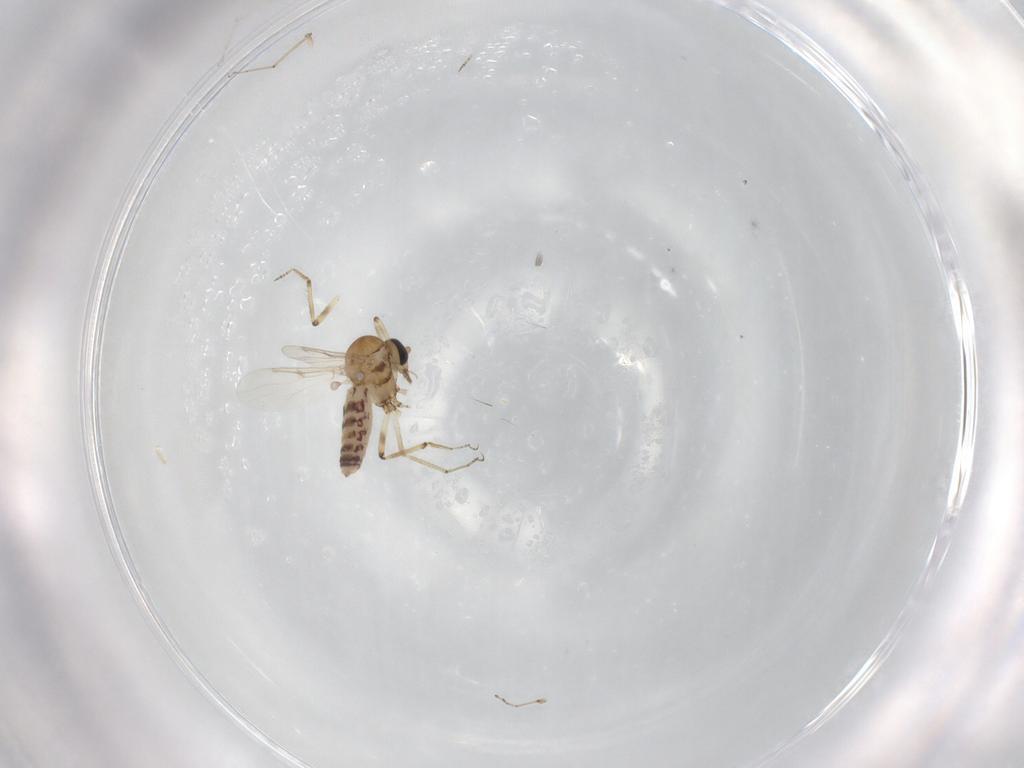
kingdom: Animalia
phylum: Arthropoda
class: Insecta
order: Diptera
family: Ceratopogonidae
